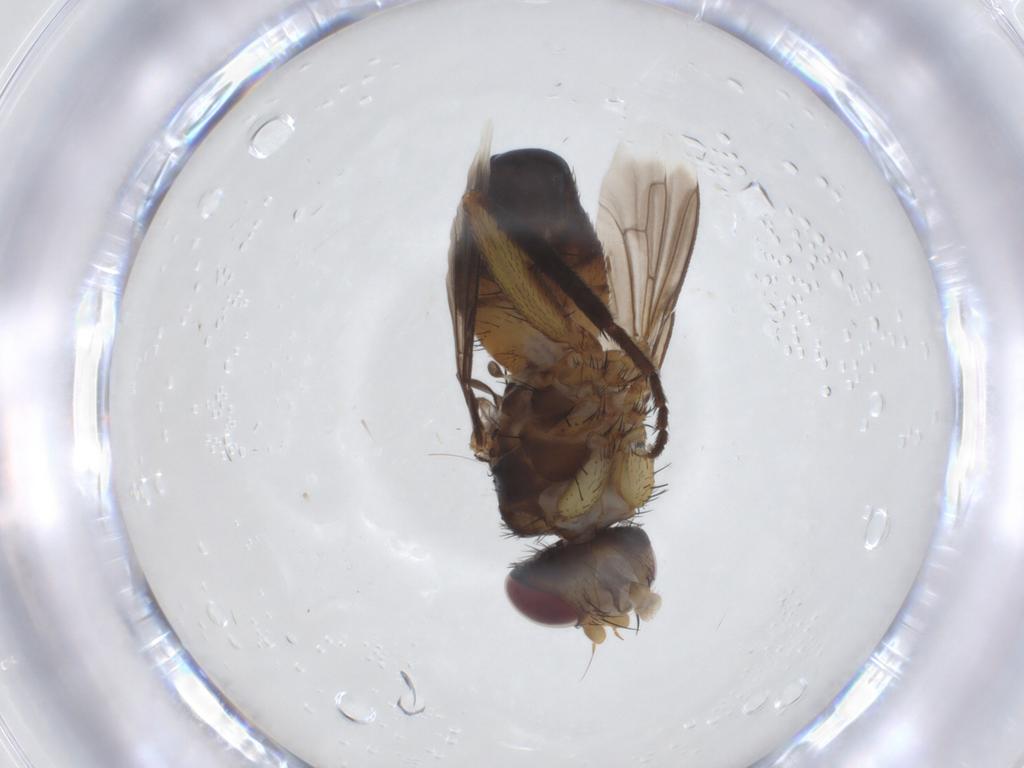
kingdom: Animalia
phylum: Arthropoda
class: Insecta
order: Diptera
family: Tachinidae
